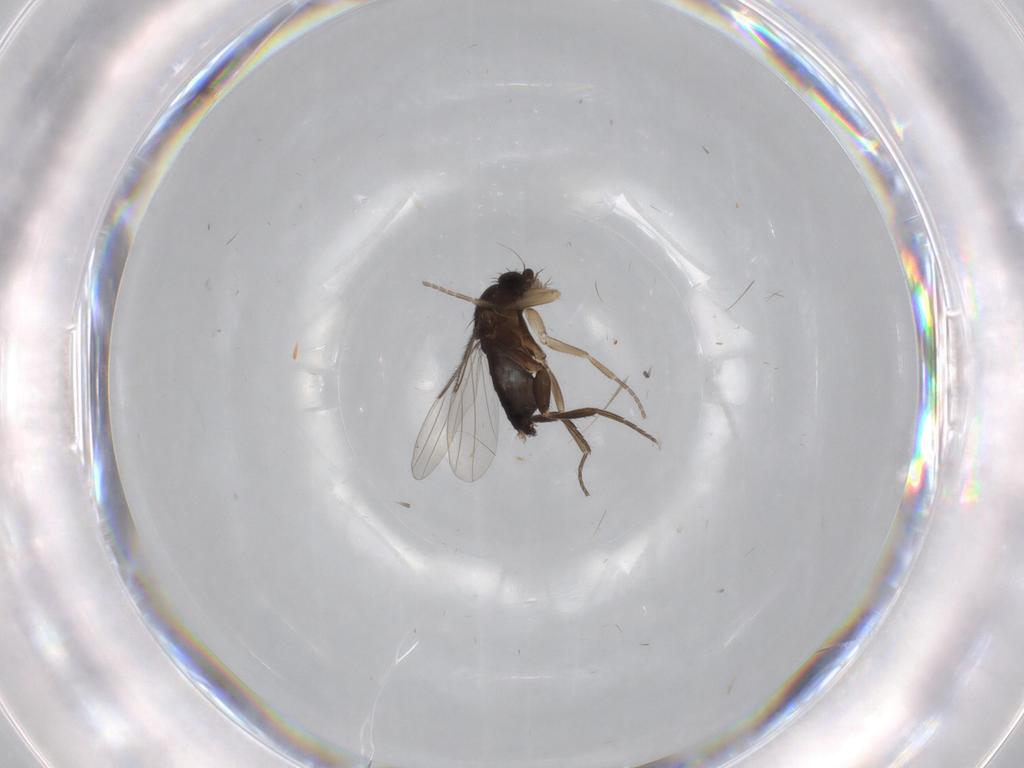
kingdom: Animalia
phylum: Arthropoda
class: Insecta
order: Diptera
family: Phoridae
